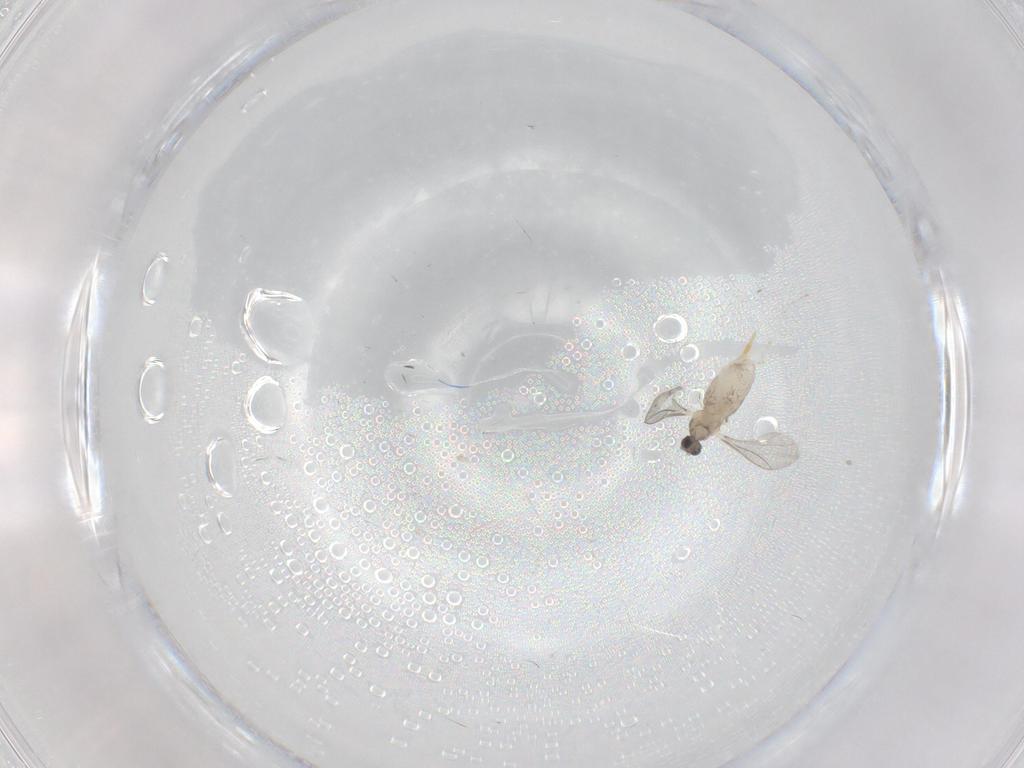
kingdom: Animalia
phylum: Arthropoda
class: Insecta
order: Diptera
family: Cecidomyiidae
